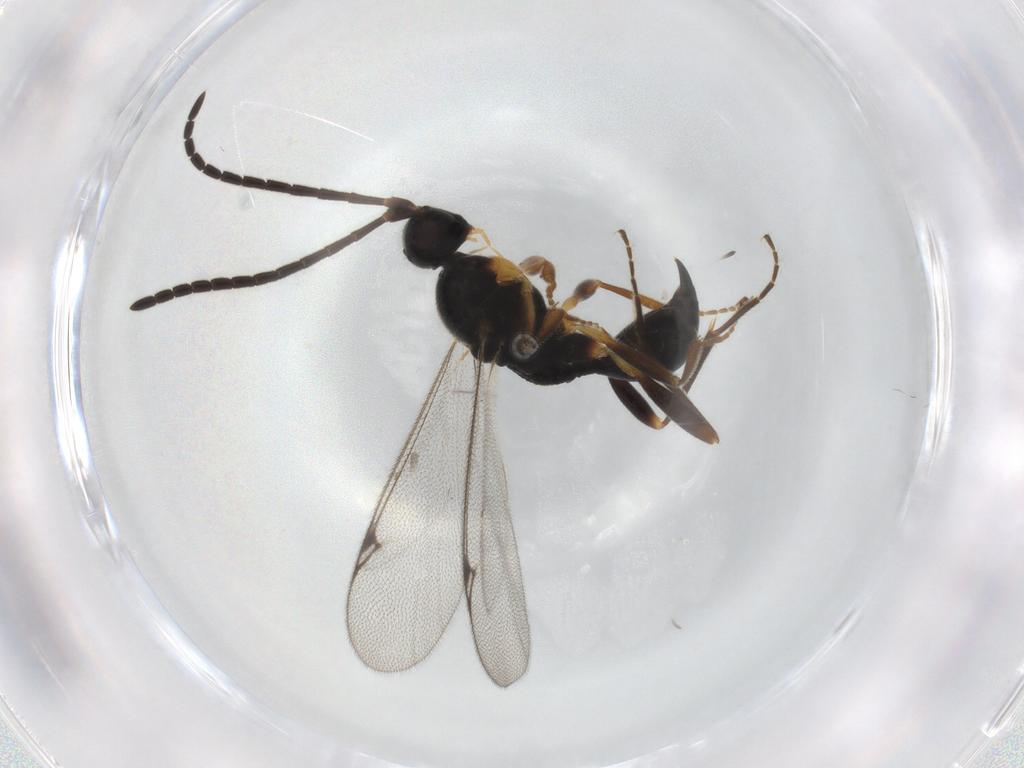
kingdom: Animalia
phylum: Arthropoda
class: Insecta
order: Hymenoptera
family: Proctotrupidae
